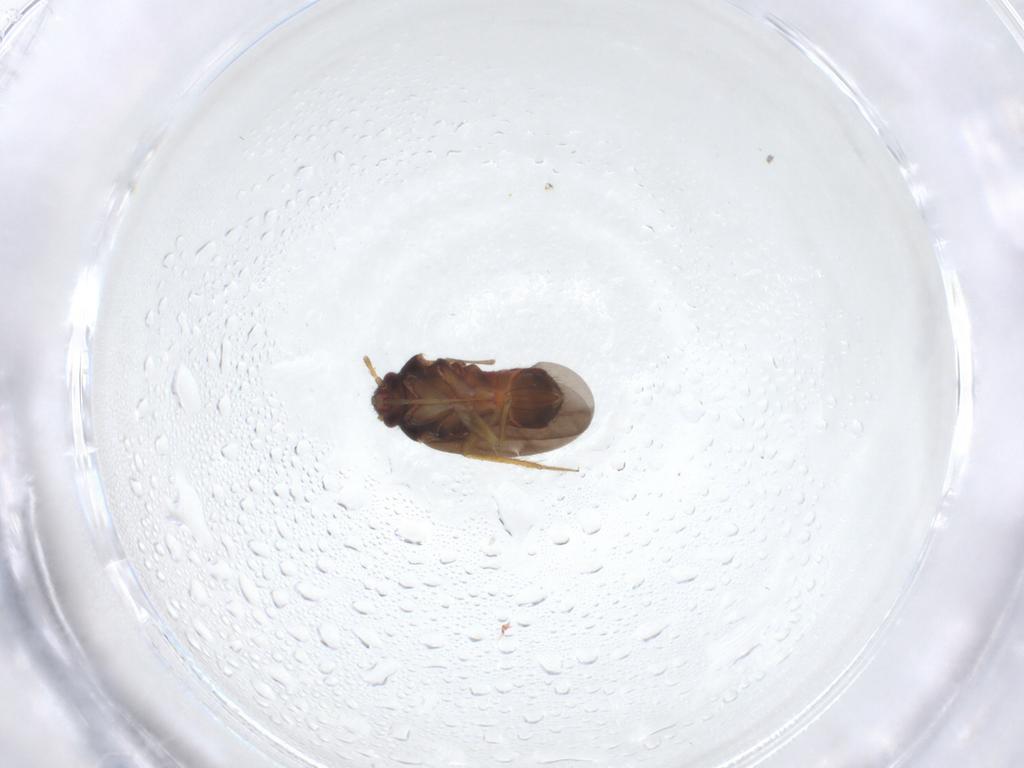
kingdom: Animalia
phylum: Arthropoda
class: Insecta
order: Hemiptera
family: Ceratocombidae
